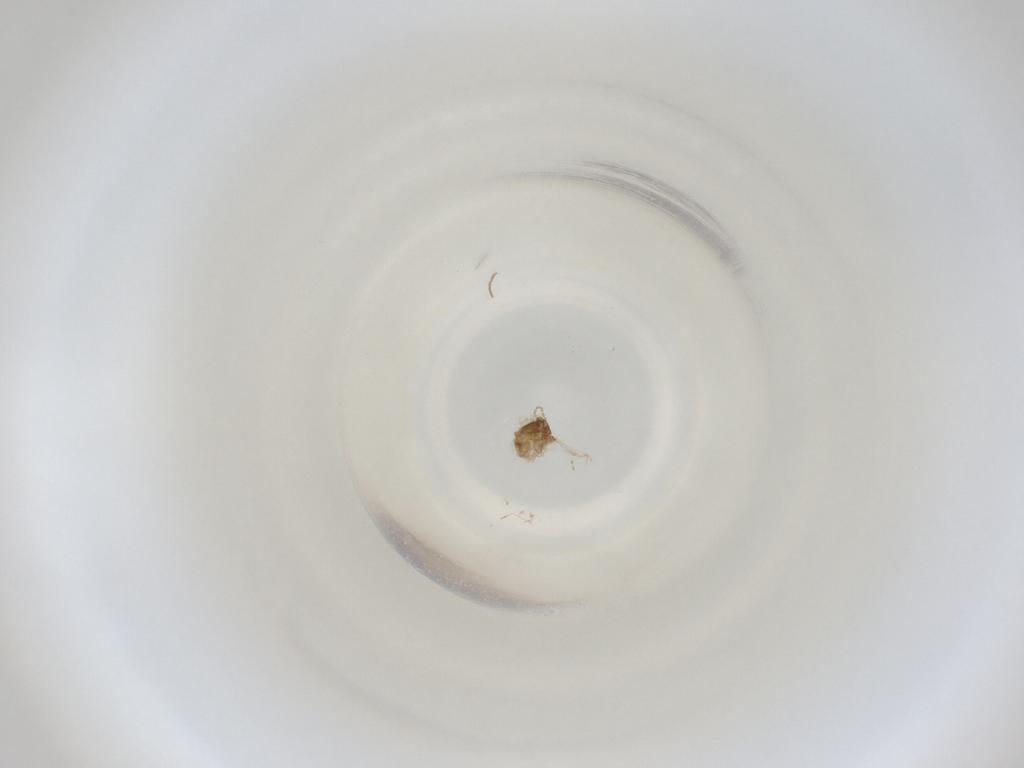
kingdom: Animalia
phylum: Arthropoda
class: Insecta
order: Diptera
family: Cecidomyiidae
